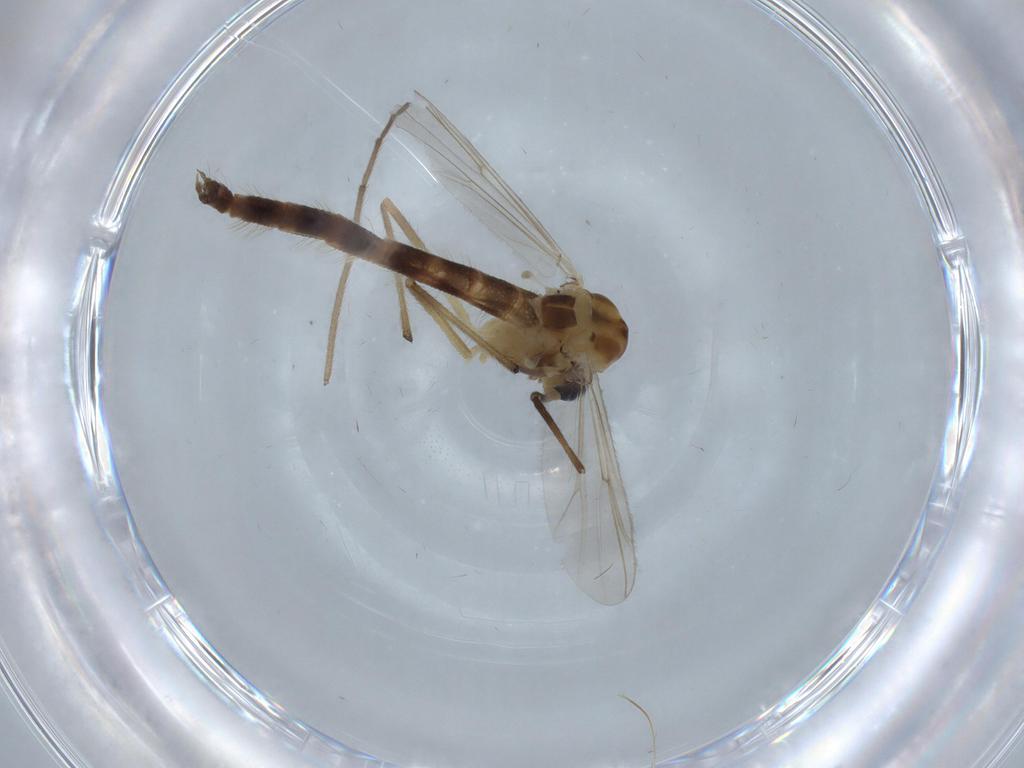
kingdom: Animalia
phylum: Arthropoda
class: Insecta
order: Diptera
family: Chironomidae
